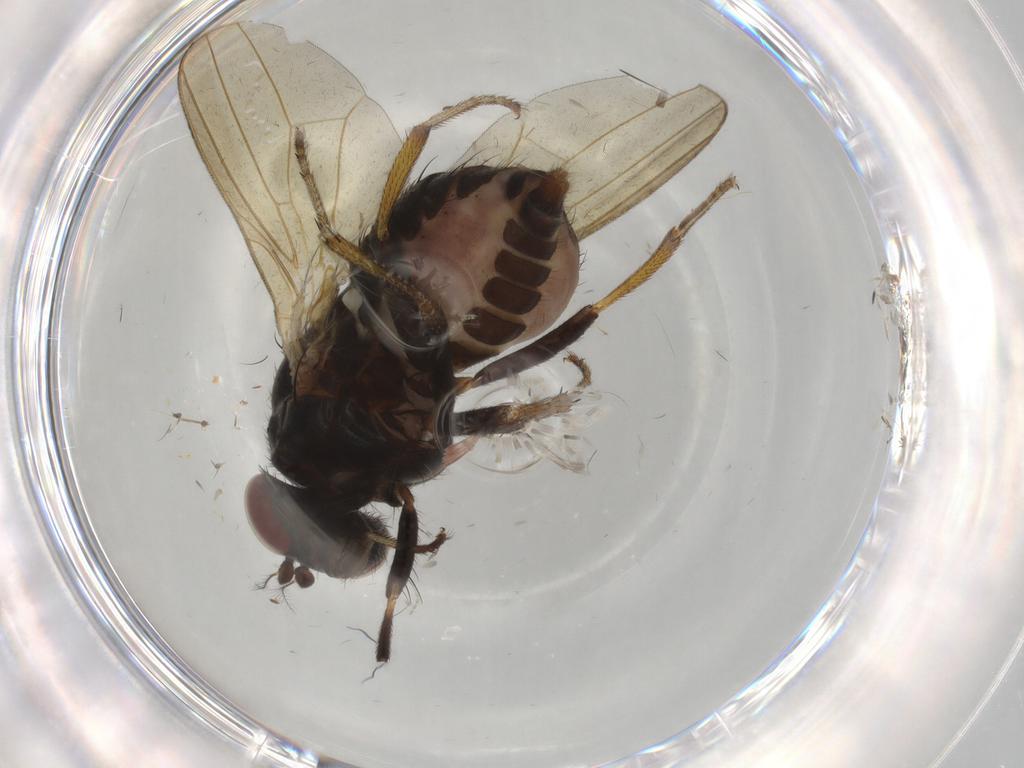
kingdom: Animalia
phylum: Arthropoda
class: Insecta
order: Diptera
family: Cecidomyiidae
